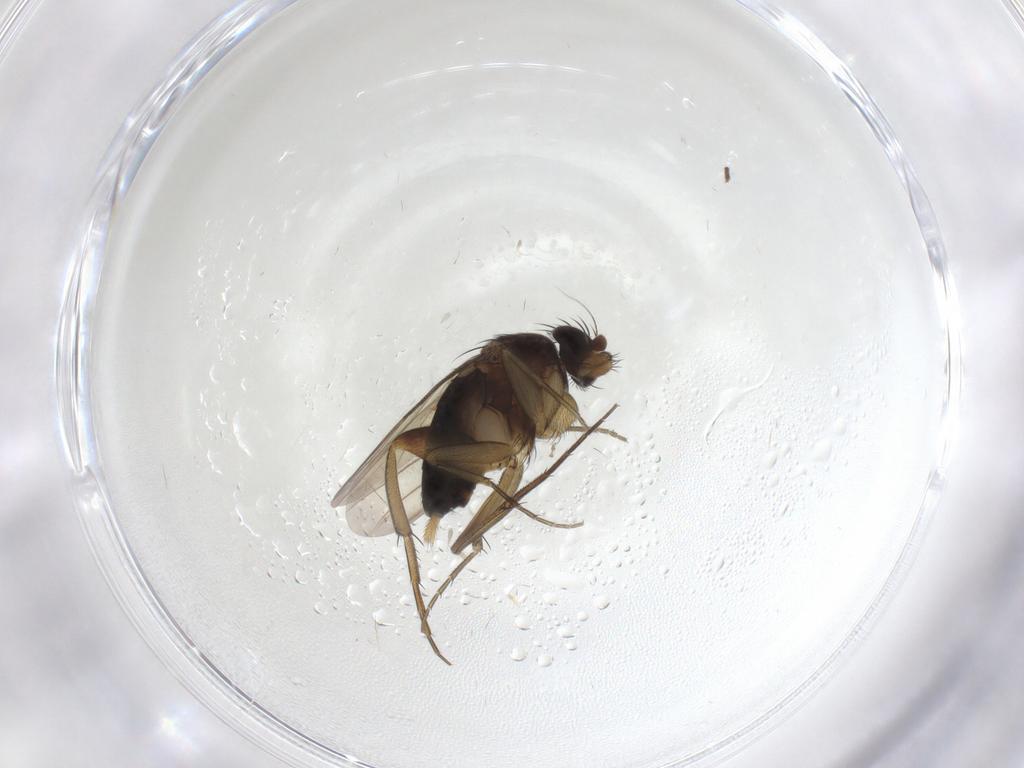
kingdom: Animalia
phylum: Arthropoda
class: Insecta
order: Diptera
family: Phoridae
